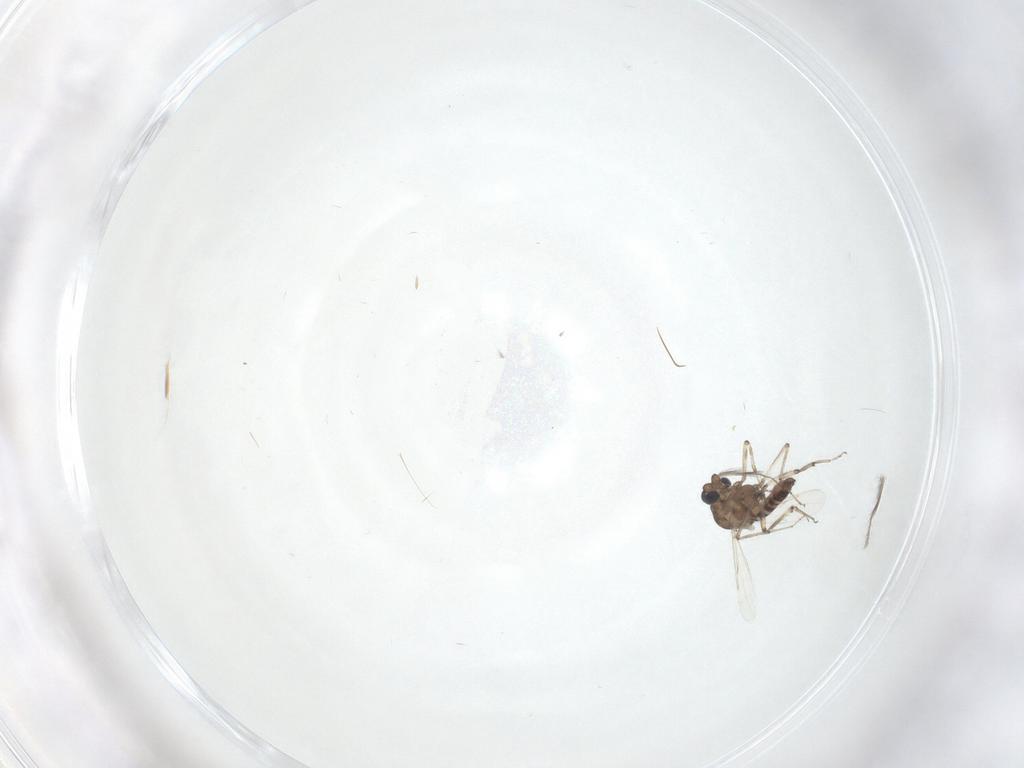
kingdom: Animalia
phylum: Arthropoda
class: Insecta
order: Diptera
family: Ceratopogonidae
